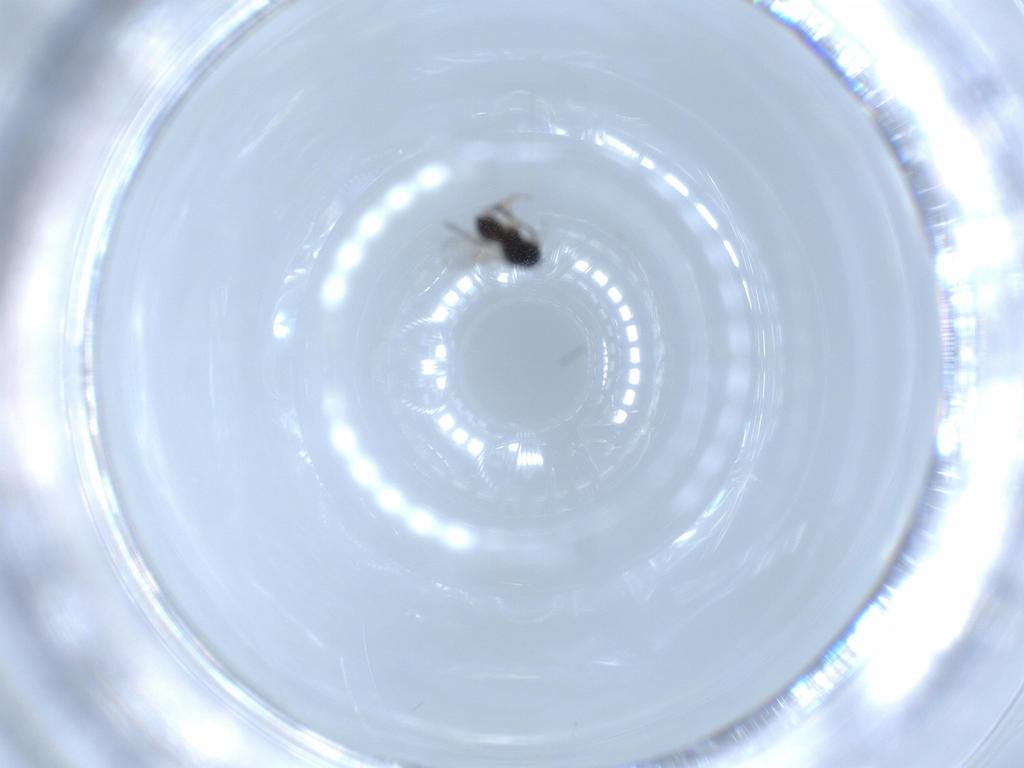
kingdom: Animalia
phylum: Arthropoda
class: Insecta
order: Hymenoptera
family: Scelionidae
